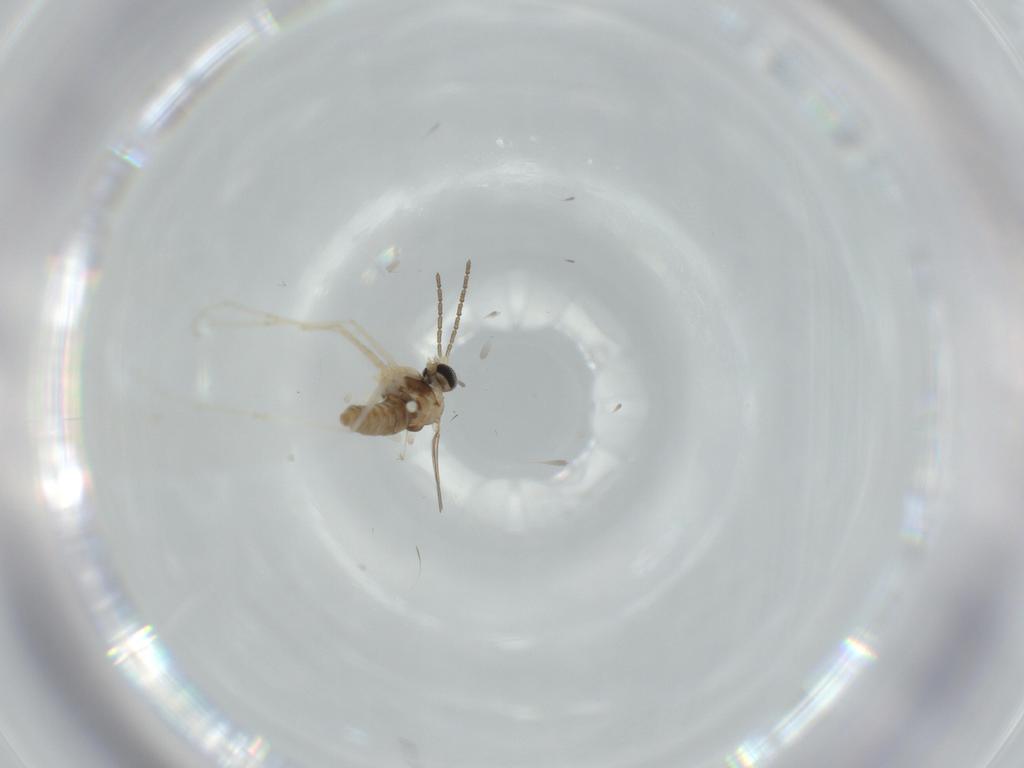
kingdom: Animalia
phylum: Arthropoda
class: Insecta
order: Diptera
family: Cecidomyiidae
